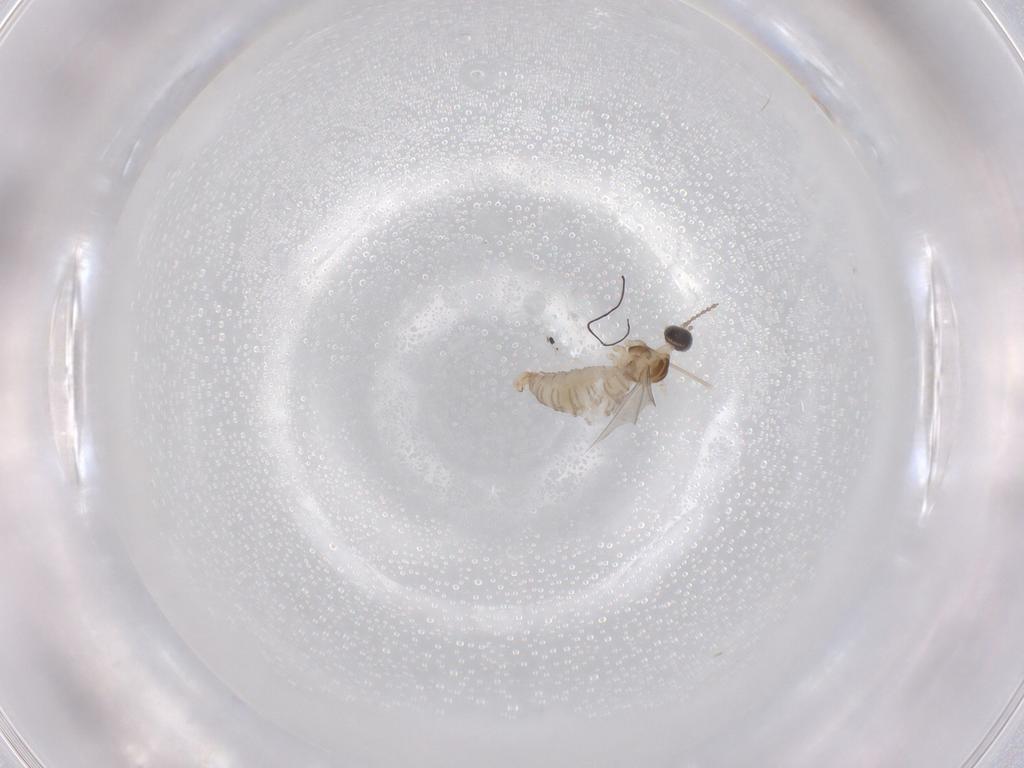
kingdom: Animalia
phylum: Arthropoda
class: Insecta
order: Diptera
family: Cecidomyiidae
